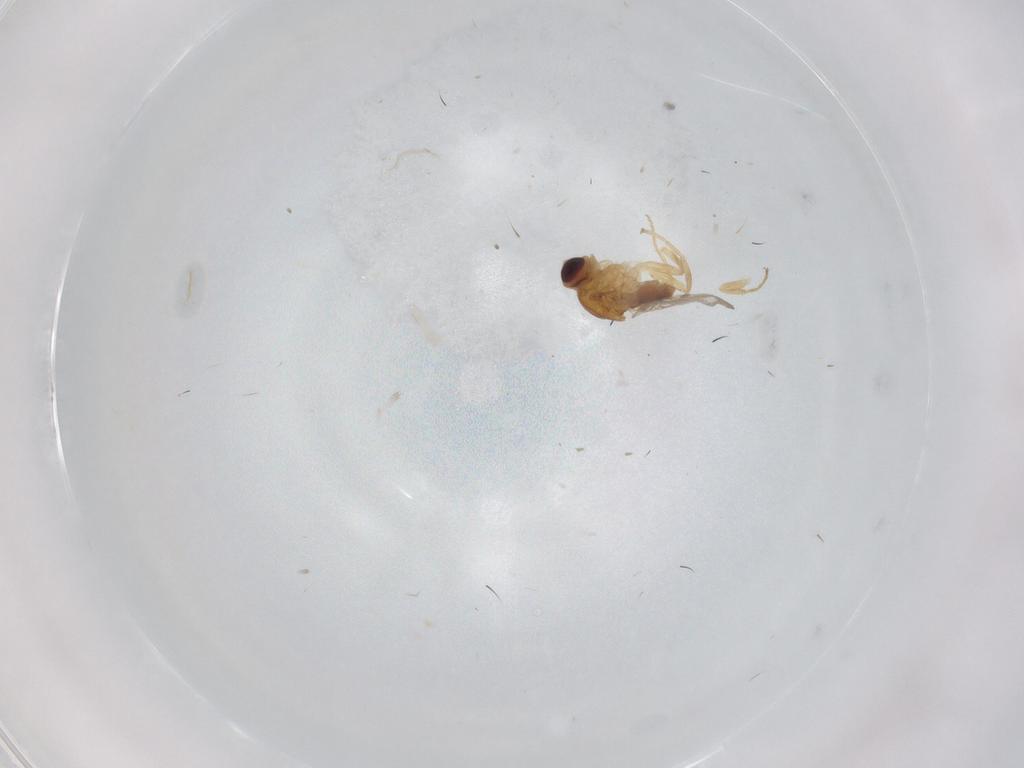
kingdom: Animalia
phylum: Arthropoda
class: Insecta
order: Diptera
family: Chloropidae
